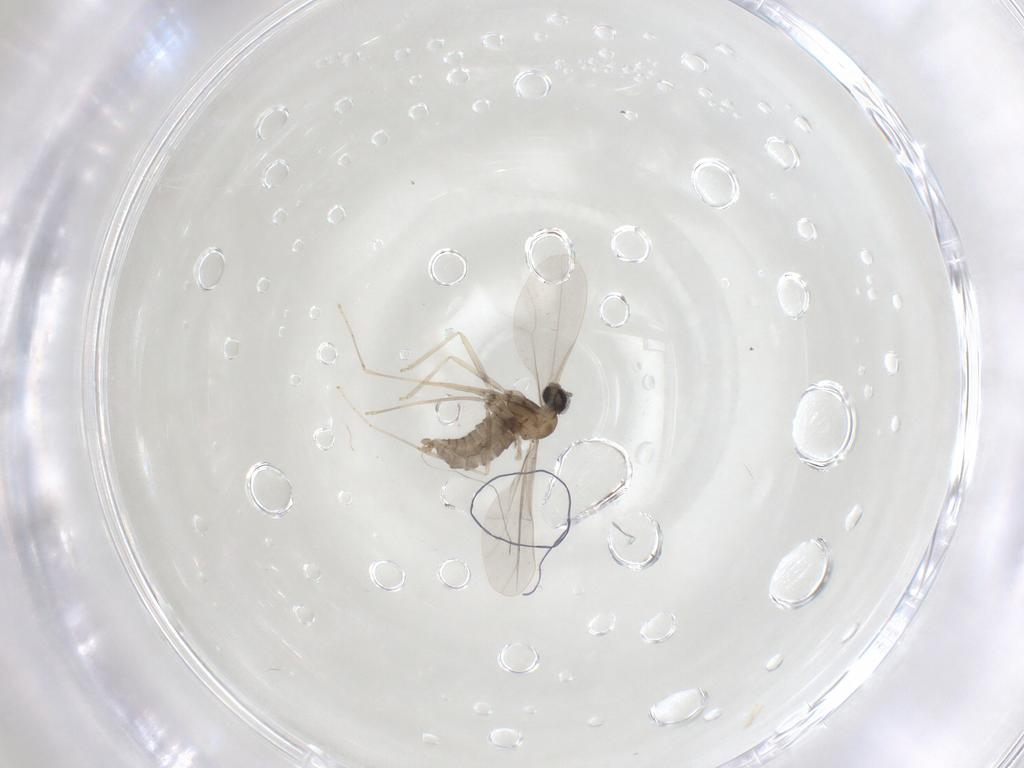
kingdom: Animalia
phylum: Arthropoda
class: Insecta
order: Diptera
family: Cecidomyiidae
